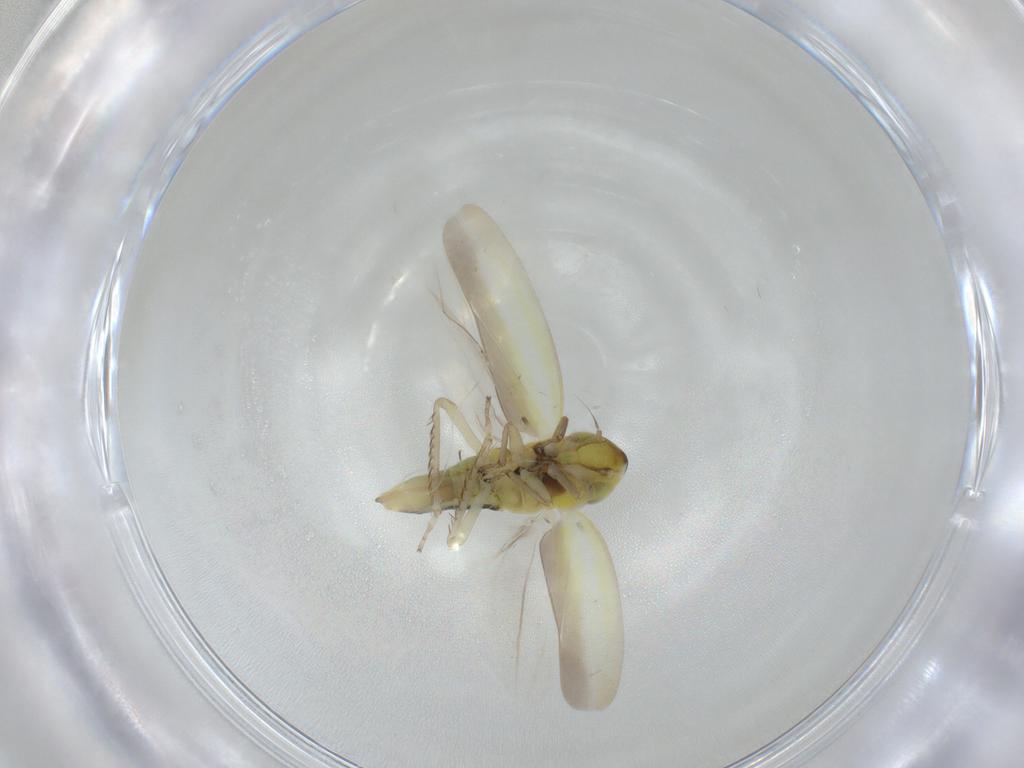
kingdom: Animalia
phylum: Arthropoda
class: Insecta
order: Hemiptera
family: Cicadellidae
